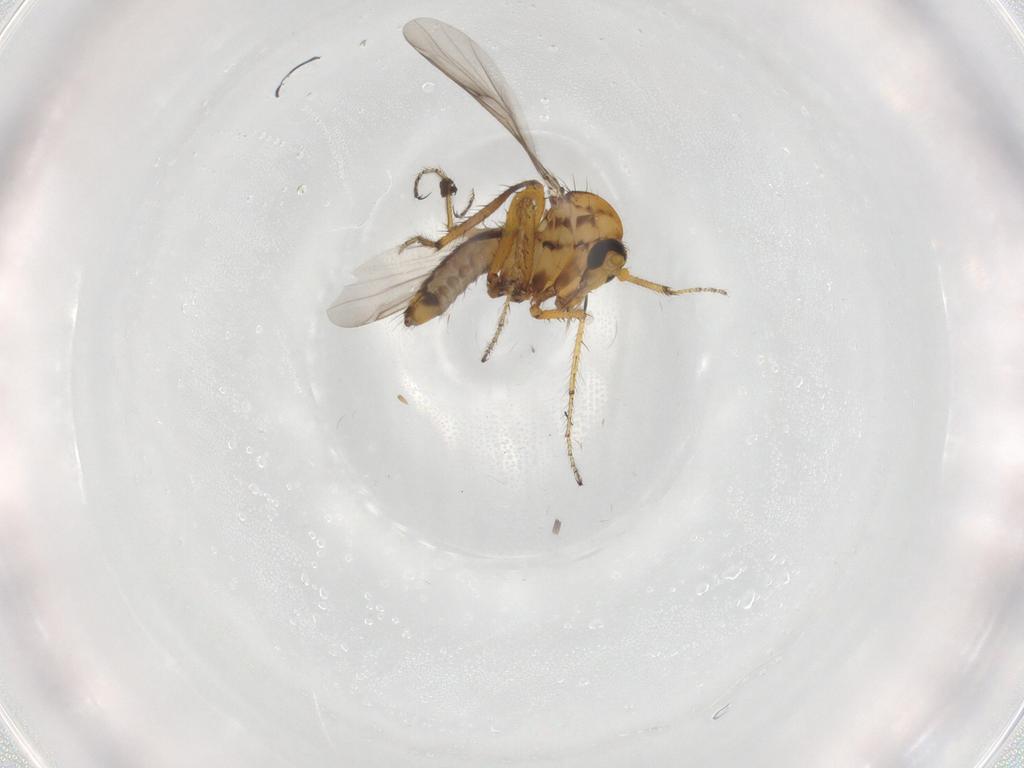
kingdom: Animalia
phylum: Arthropoda
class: Insecta
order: Diptera
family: Ceratopogonidae
